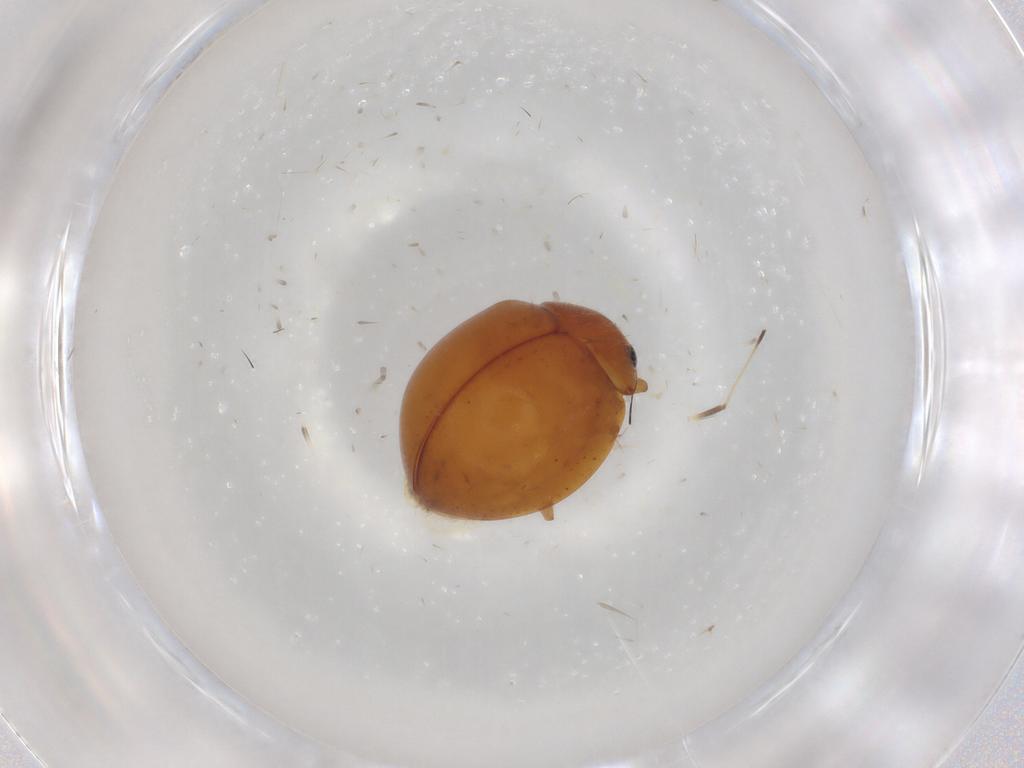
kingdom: Animalia
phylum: Arthropoda
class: Insecta
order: Coleoptera
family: Coccinellidae
